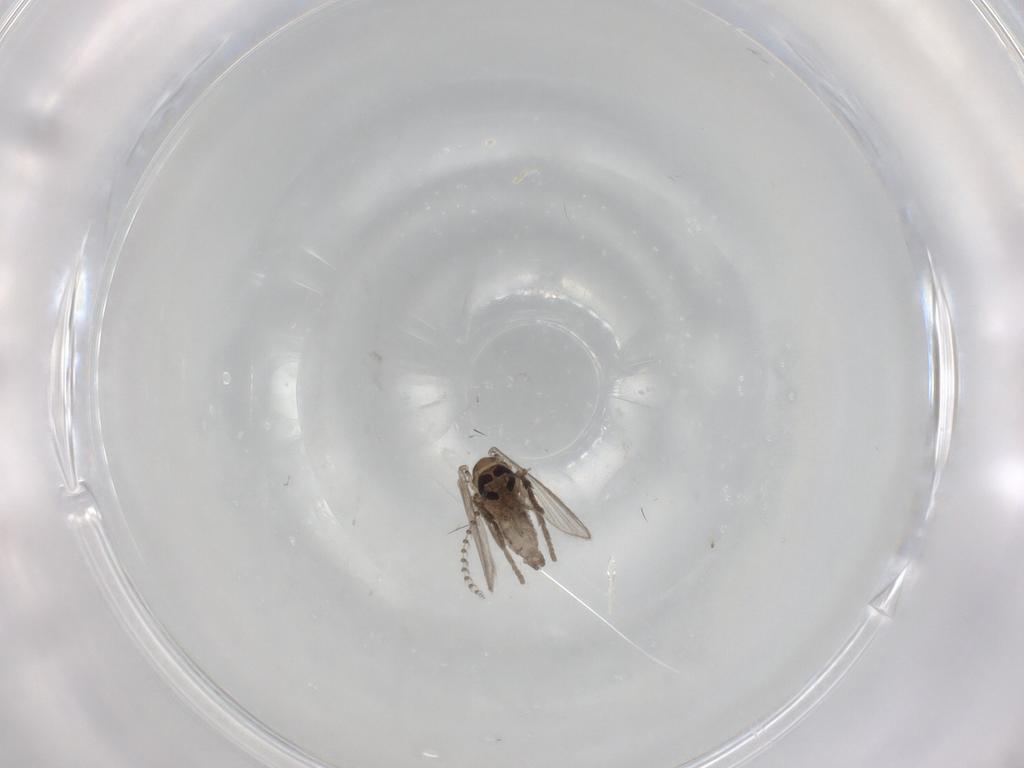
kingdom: Animalia
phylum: Arthropoda
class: Insecta
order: Diptera
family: Psychodidae
